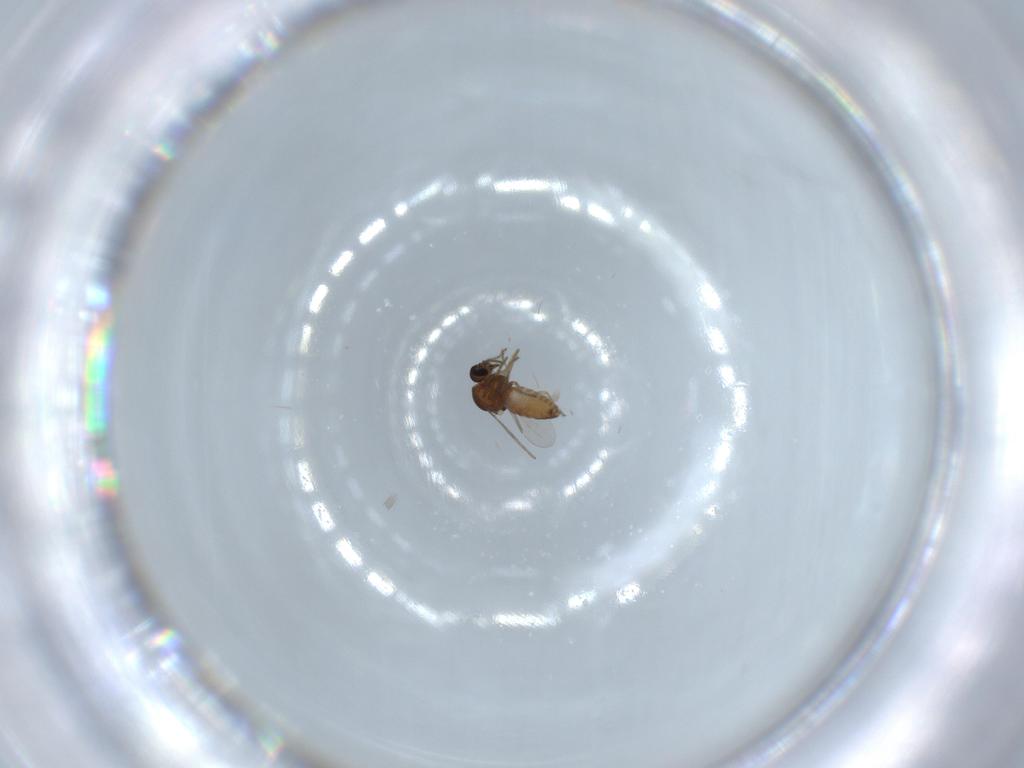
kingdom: Animalia
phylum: Arthropoda
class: Insecta
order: Diptera
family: Ceratopogonidae
